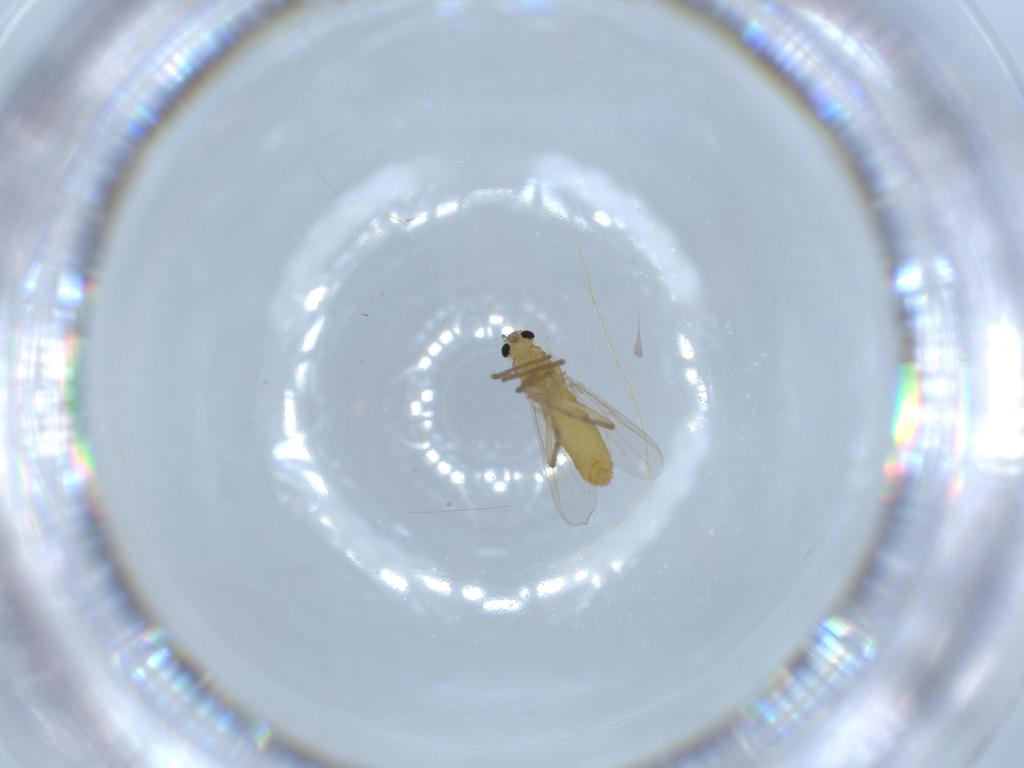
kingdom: Animalia
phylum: Arthropoda
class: Insecta
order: Diptera
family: Chironomidae
